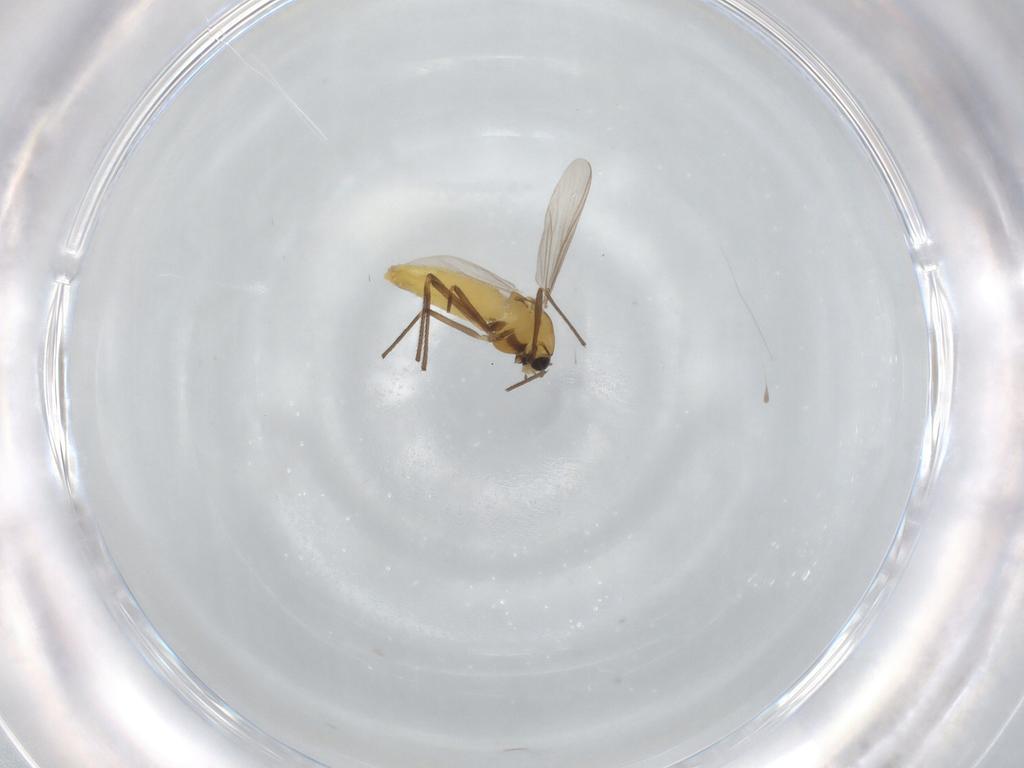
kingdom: Animalia
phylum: Arthropoda
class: Insecta
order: Diptera
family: Chironomidae
